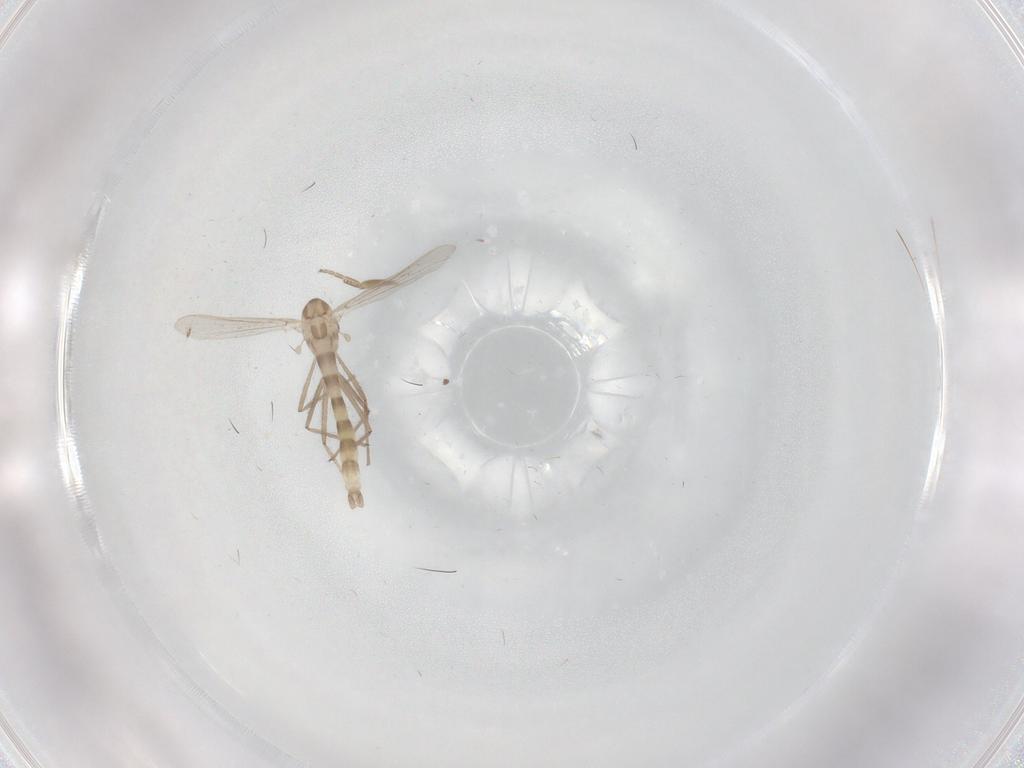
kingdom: Animalia
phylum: Arthropoda
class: Insecta
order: Diptera
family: Chironomidae
